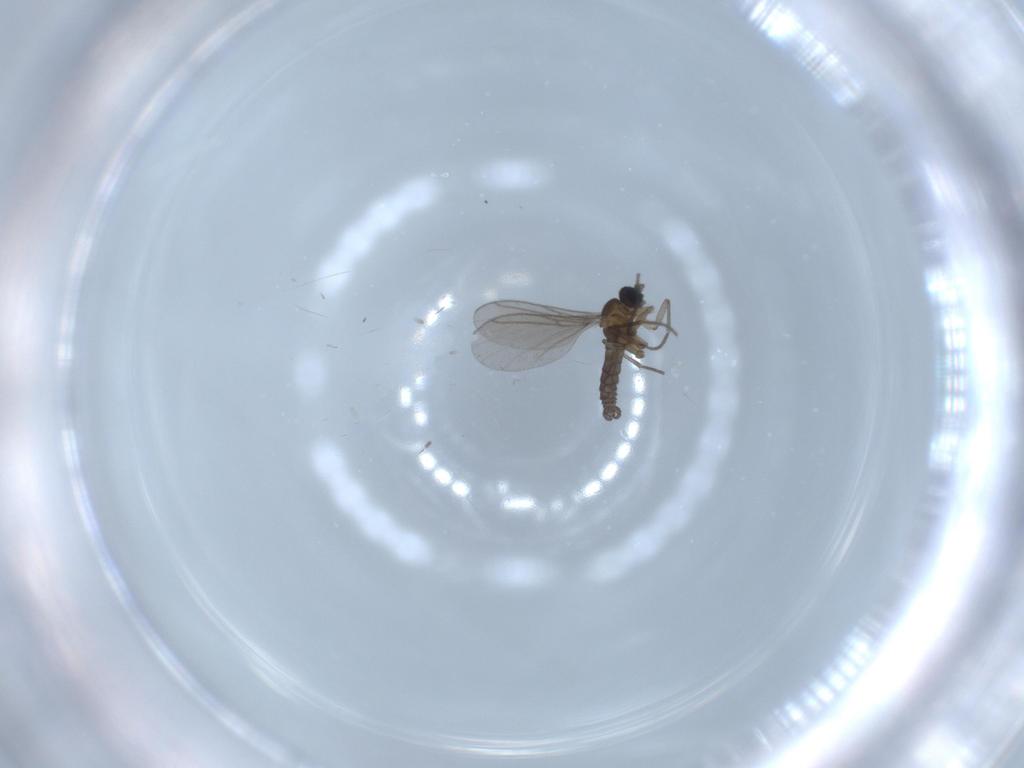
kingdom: Animalia
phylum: Arthropoda
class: Insecta
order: Diptera
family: Sciaridae
